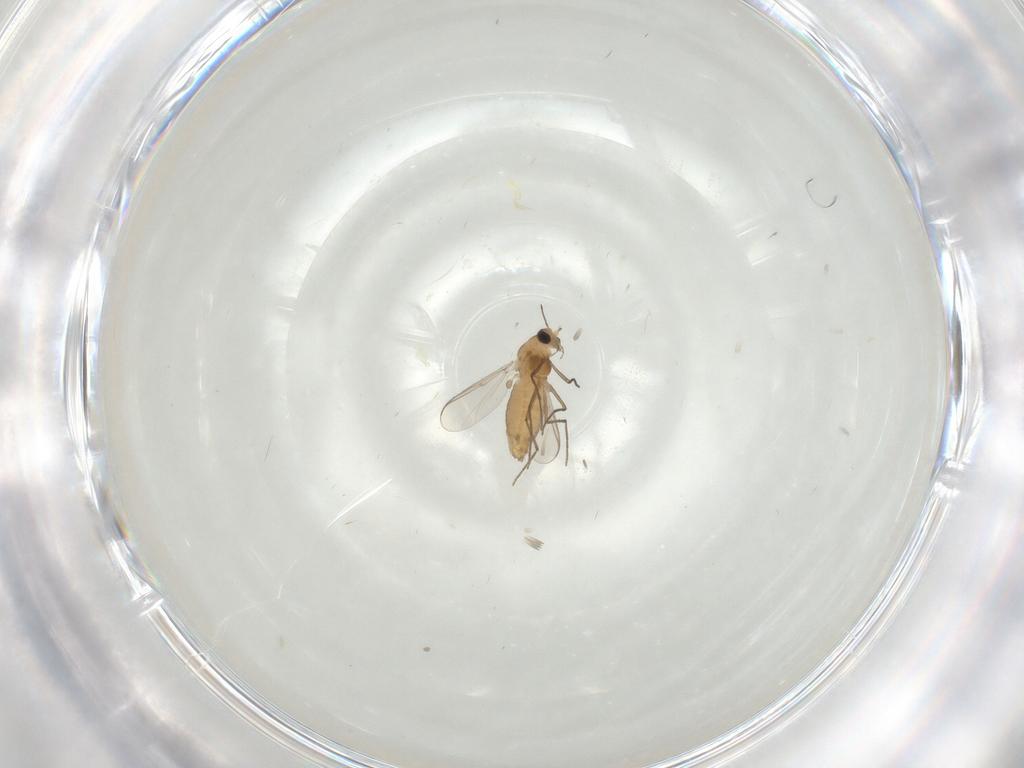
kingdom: Animalia
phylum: Arthropoda
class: Insecta
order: Diptera
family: Chironomidae
